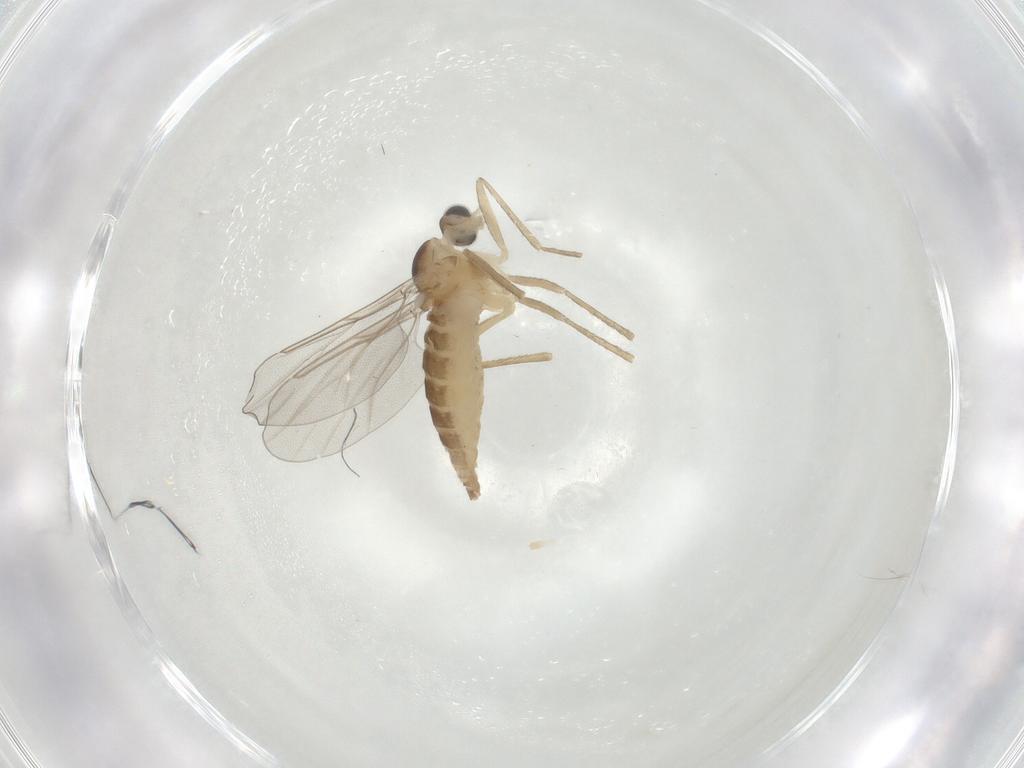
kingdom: Animalia
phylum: Arthropoda
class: Insecta
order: Diptera
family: Cecidomyiidae
